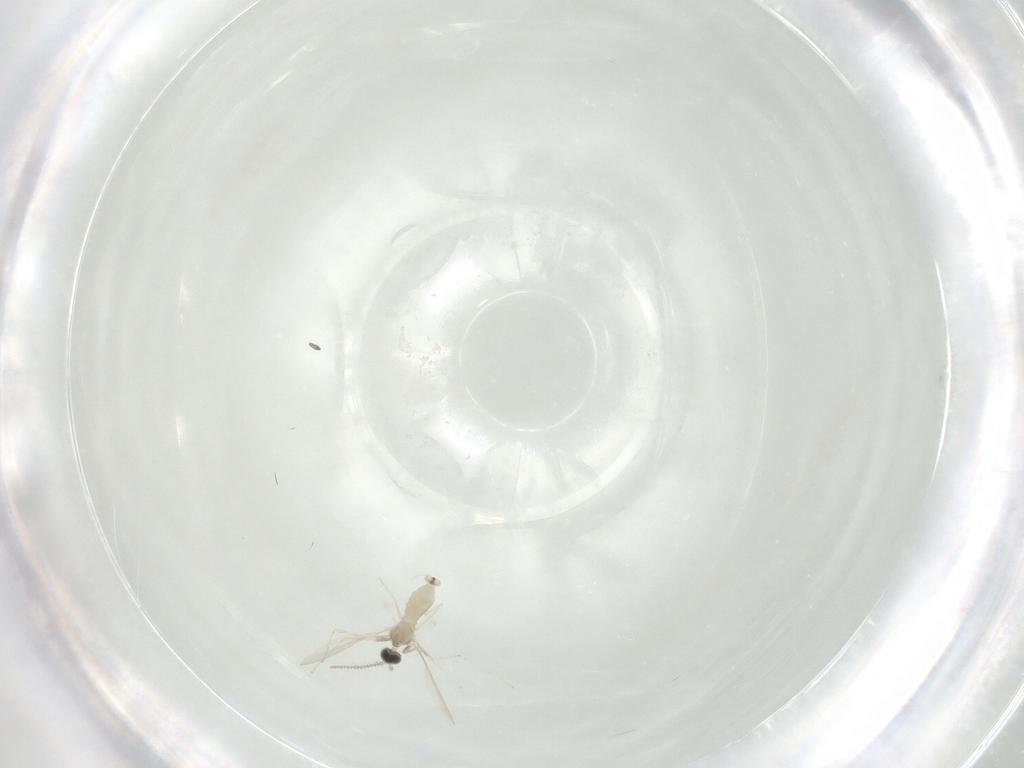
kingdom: Animalia
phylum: Arthropoda
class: Insecta
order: Diptera
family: Cecidomyiidae
